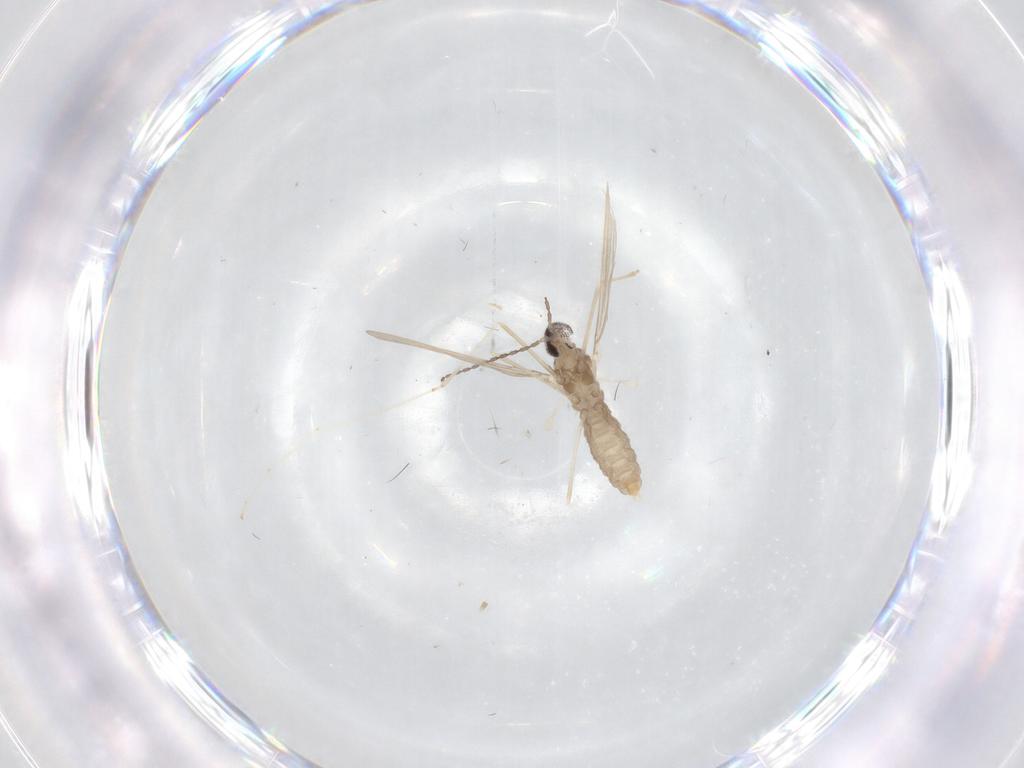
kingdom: Animalia
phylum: Arthropoda
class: Insecta
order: Diptera
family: Cecidomyiidae
